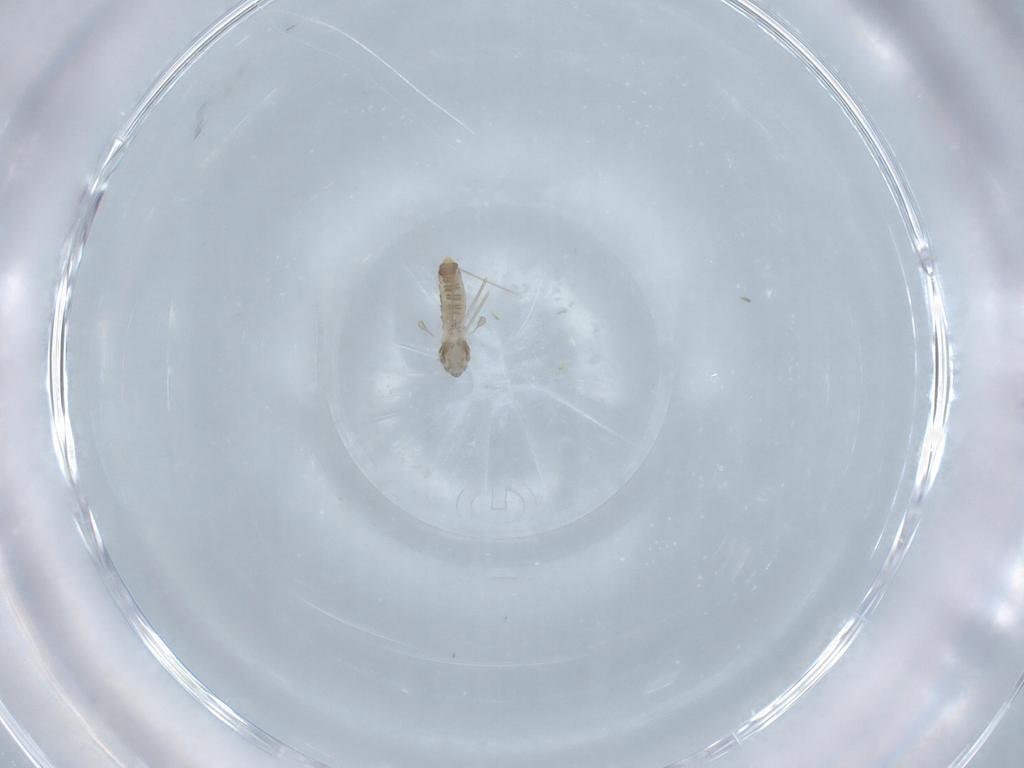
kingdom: Animalia
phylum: Arthropoda
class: Insecta
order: Diptera
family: Cecidomyiidae
